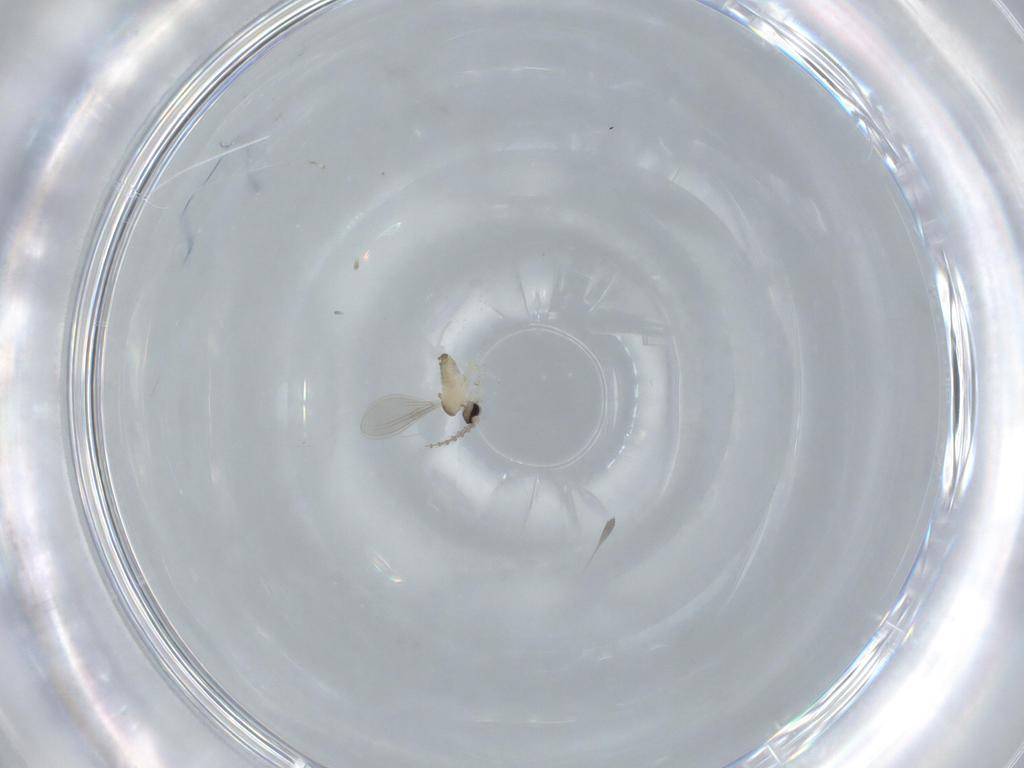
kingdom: Animalia
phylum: Arthropoda
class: Insecta
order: Diptera
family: Cecidomyiidae
